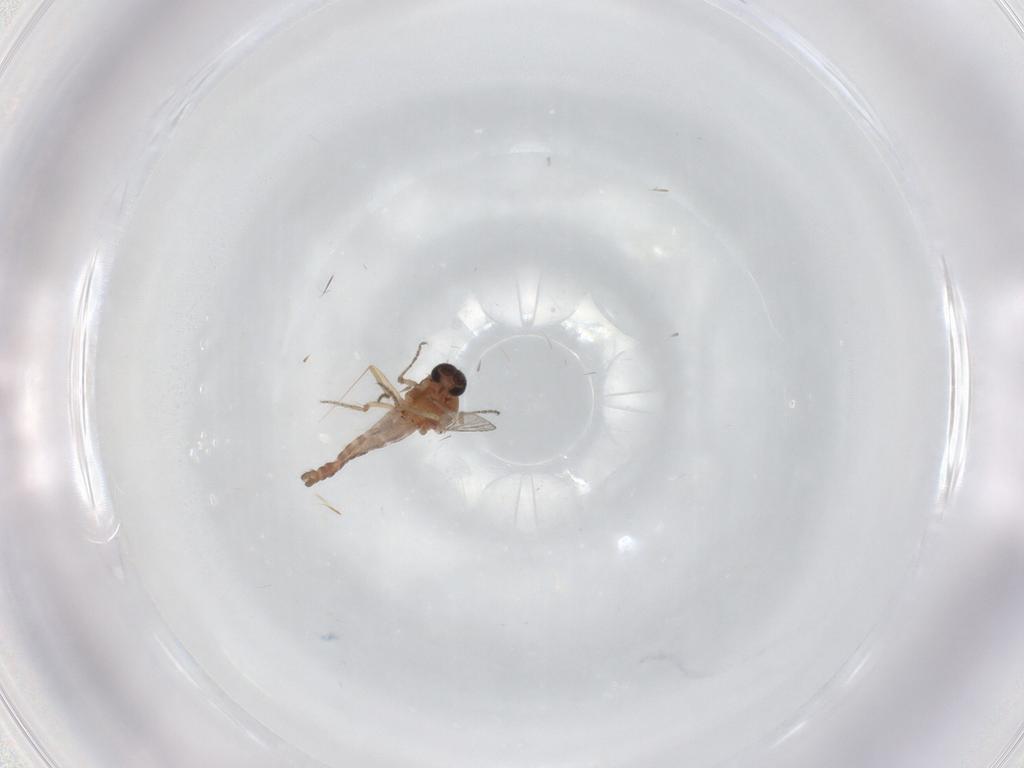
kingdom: Animalia
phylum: Arthropoda
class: Insecta
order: Diptera
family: Ceratopogonidae
